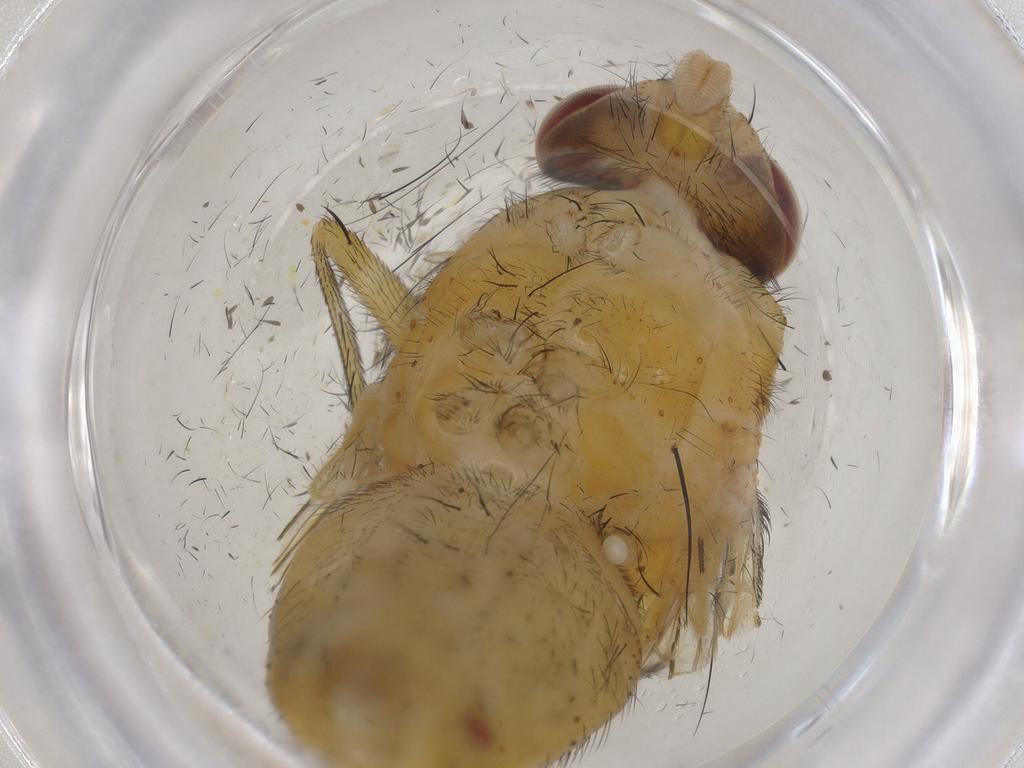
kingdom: Animalia
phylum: Arthropoda
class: Insecta
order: Diptera
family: Muscidae
